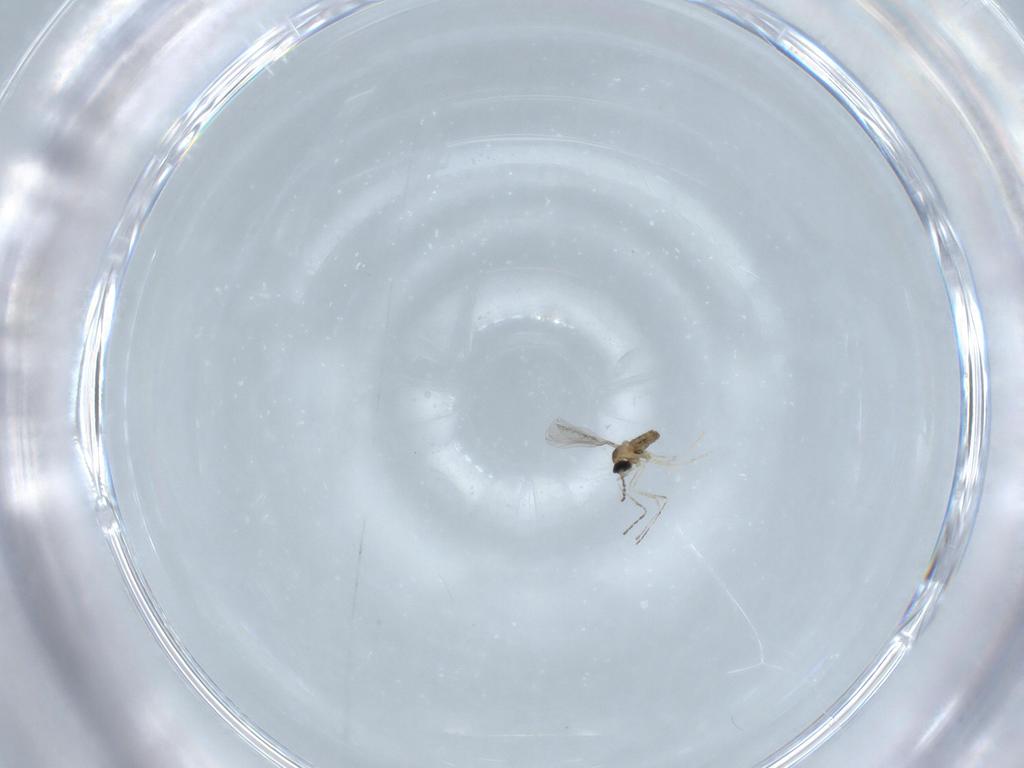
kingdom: Animalia
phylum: Arthropoda
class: Insecta
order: Diptera
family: Cecidomyiidae
